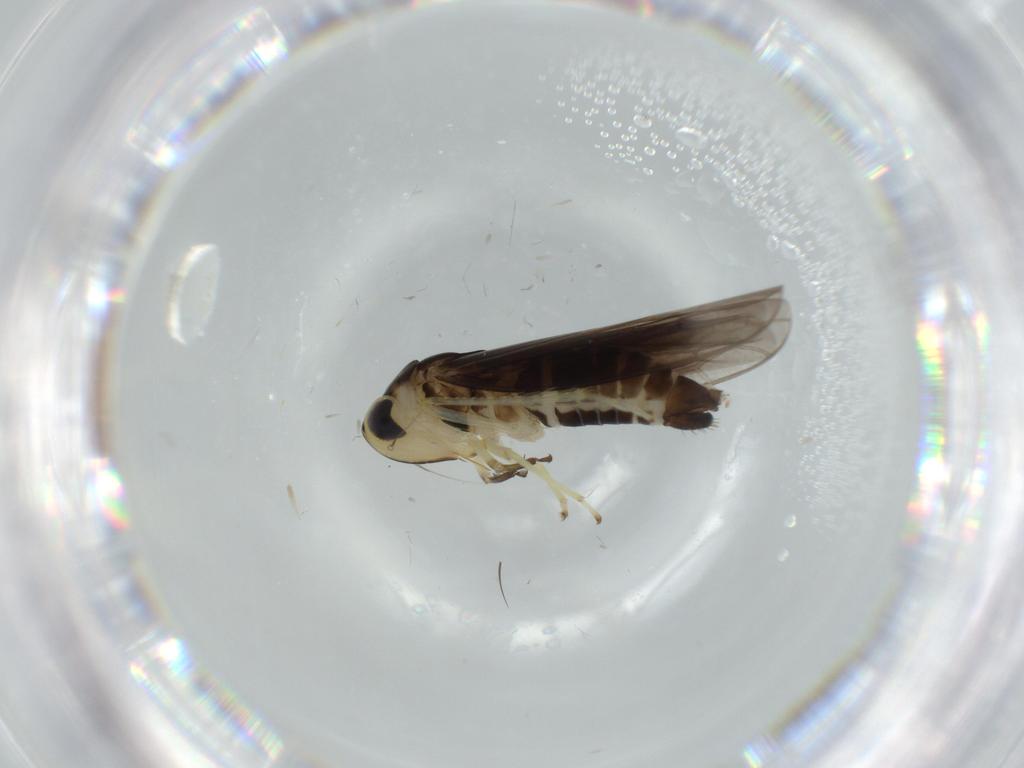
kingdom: Animalia
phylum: Arthropoda
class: Insecta
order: Hemiptera
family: Cicadellidae
